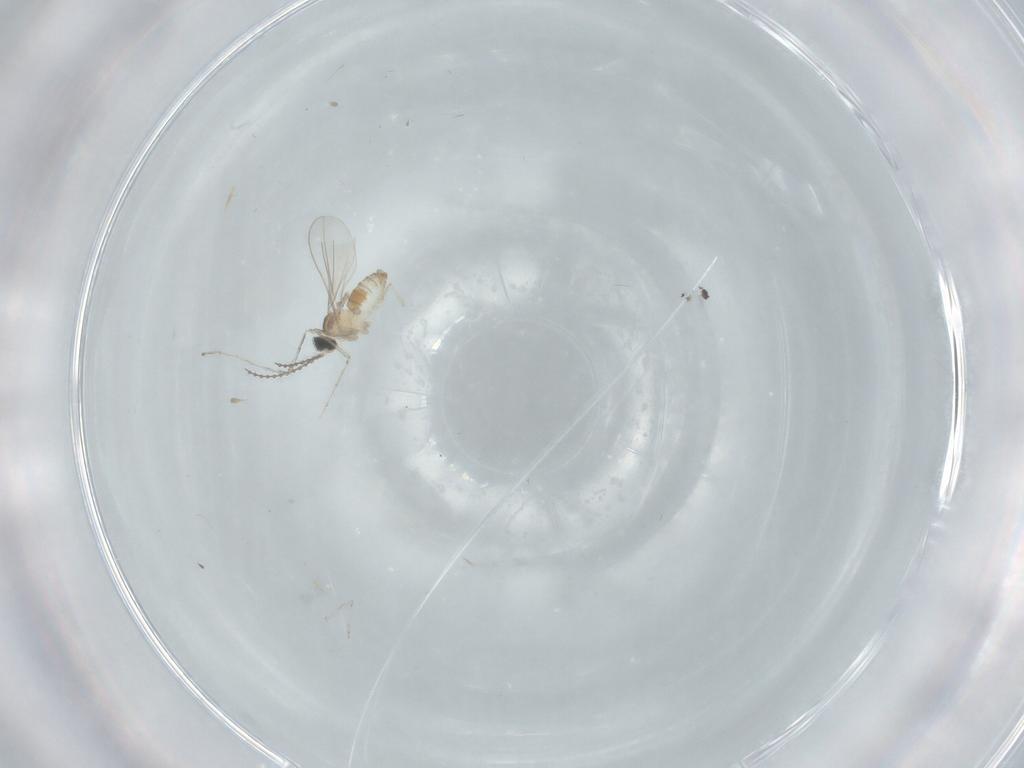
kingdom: Animalia
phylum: Arthropoda
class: Insecta
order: Diptera
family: Cecidomyiidae
